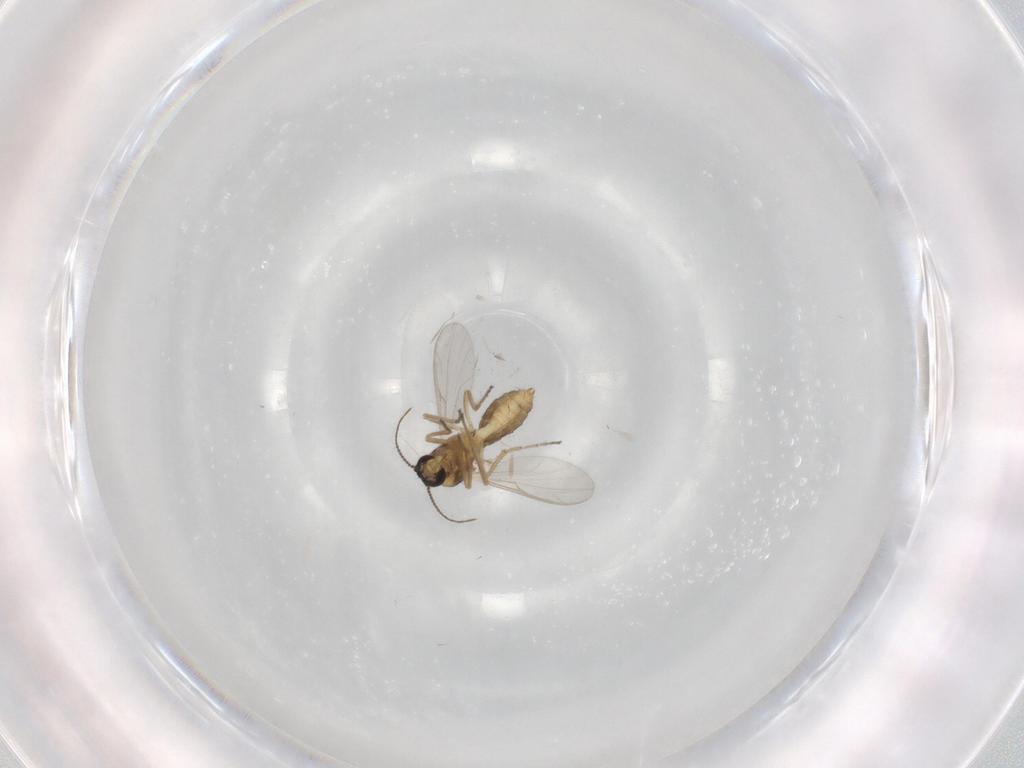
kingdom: Animalia
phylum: Arthropoda
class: Insecta
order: Diptera
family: Ceratopogonidae
